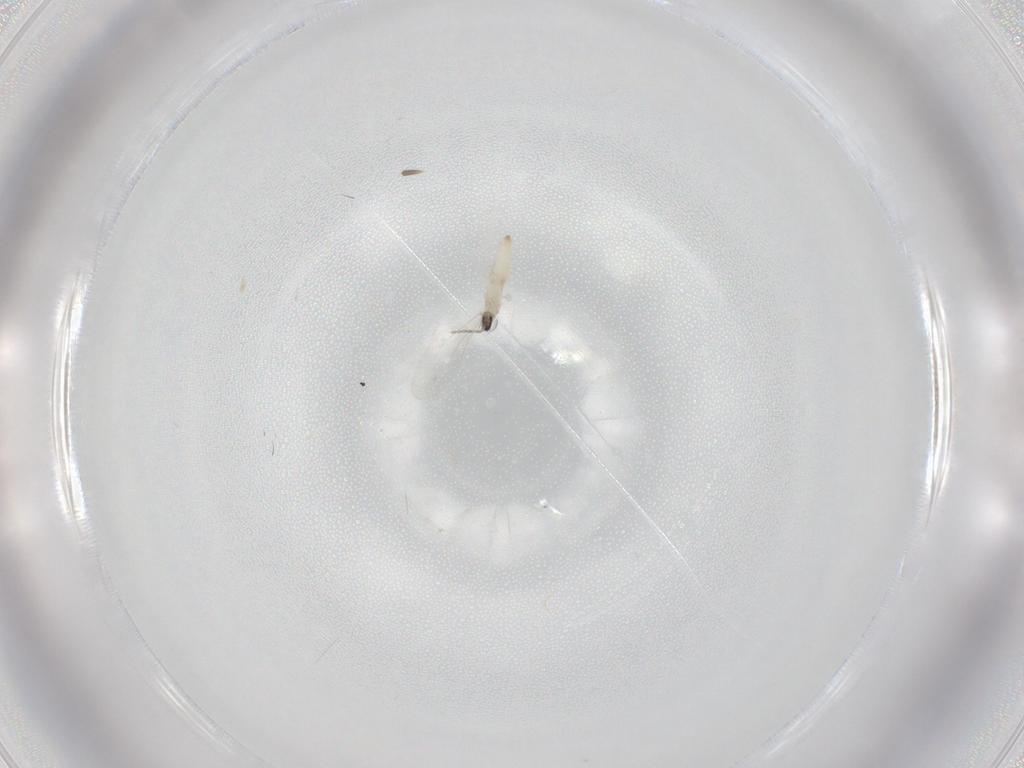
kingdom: Animalia
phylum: Arthropoda
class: Insecta
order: Diptera
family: Cecidomyiidae
